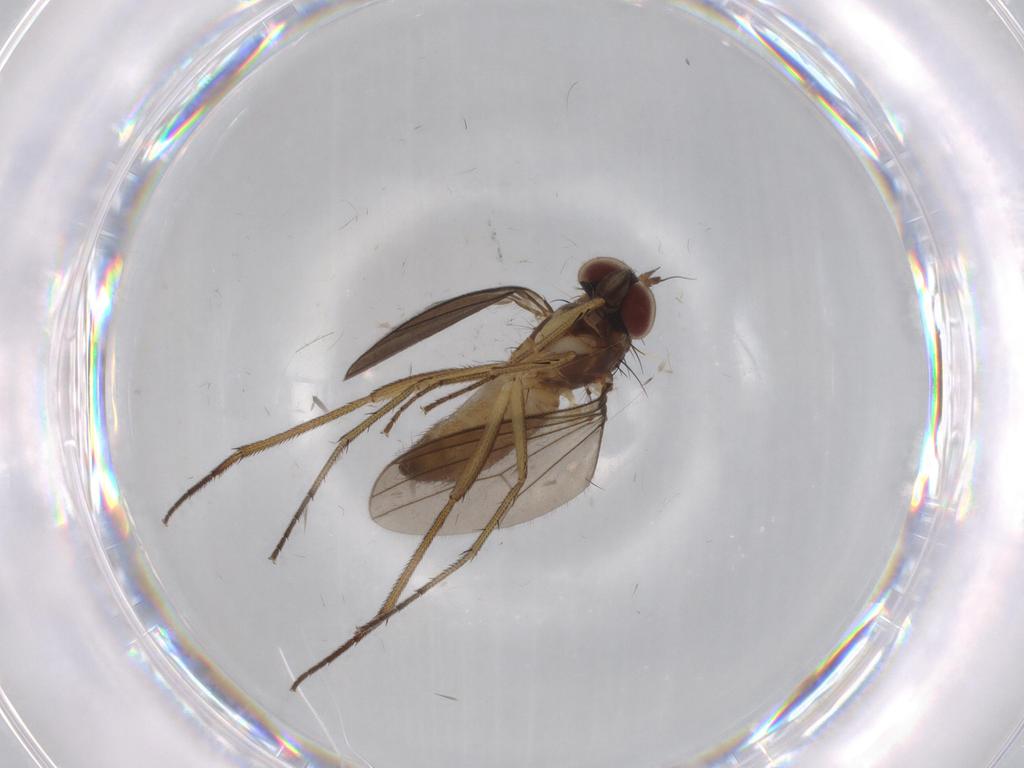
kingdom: Animalia
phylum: Arthropoda
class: Insecta
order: Diptera
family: Dolichopodidae
